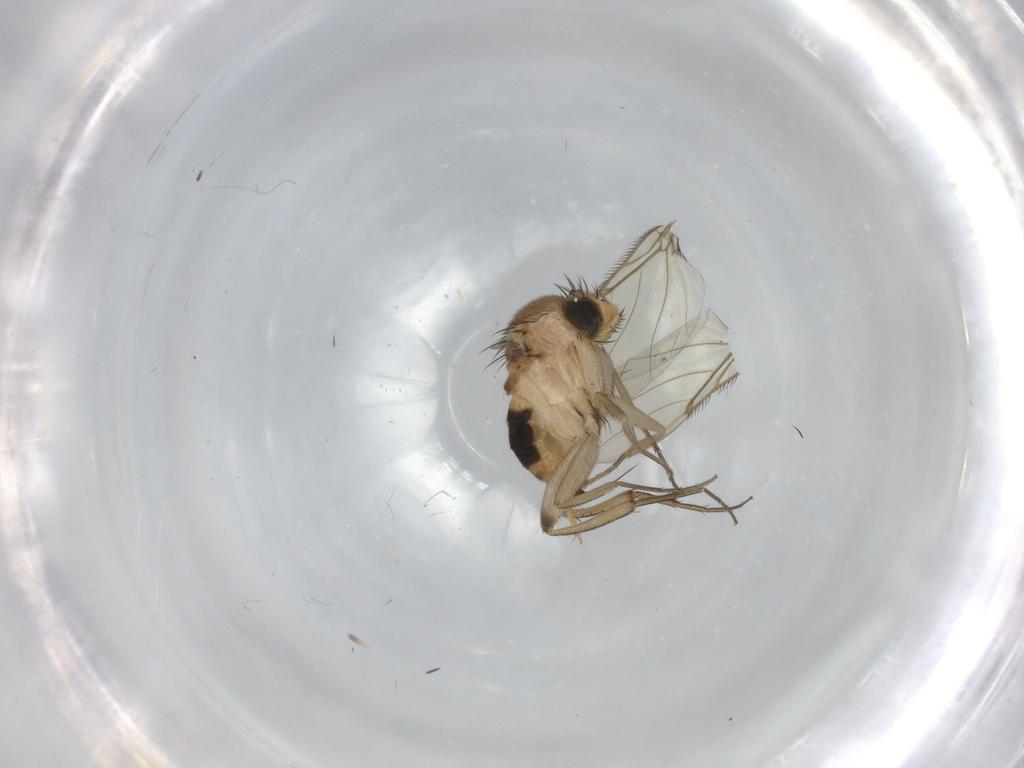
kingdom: Animalia
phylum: Arthropoda
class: Insecta
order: Diptera
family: Phoridae
